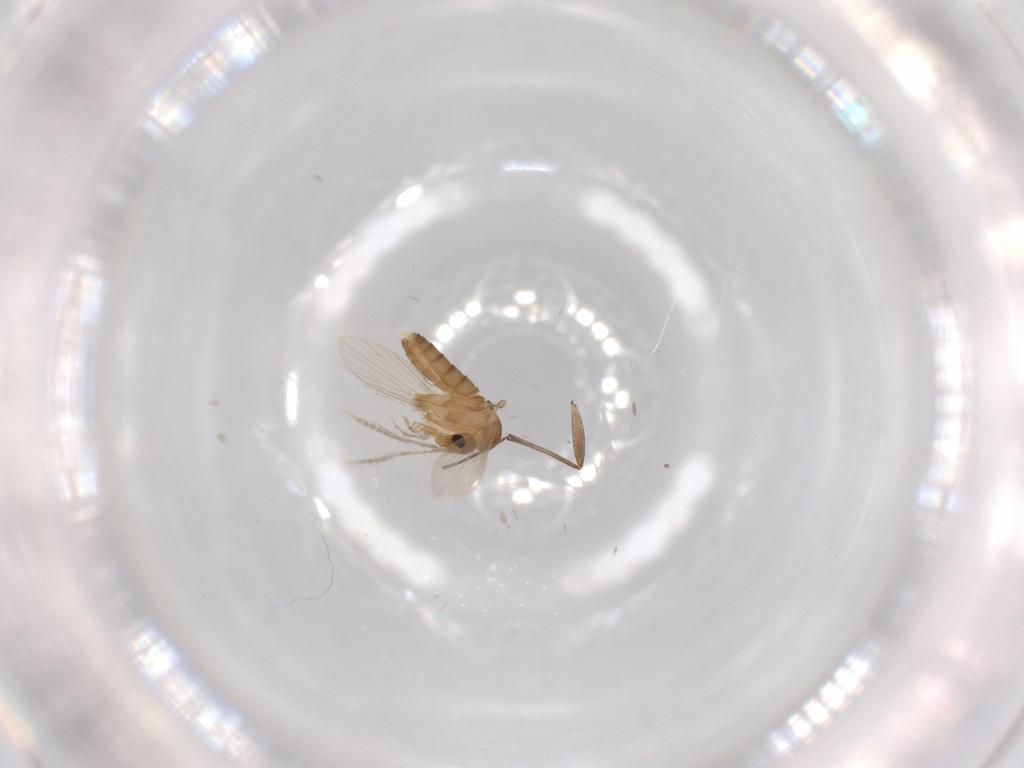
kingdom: Animalia
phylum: Arthropoda
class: Insecta
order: Diptera
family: Psychodidae
